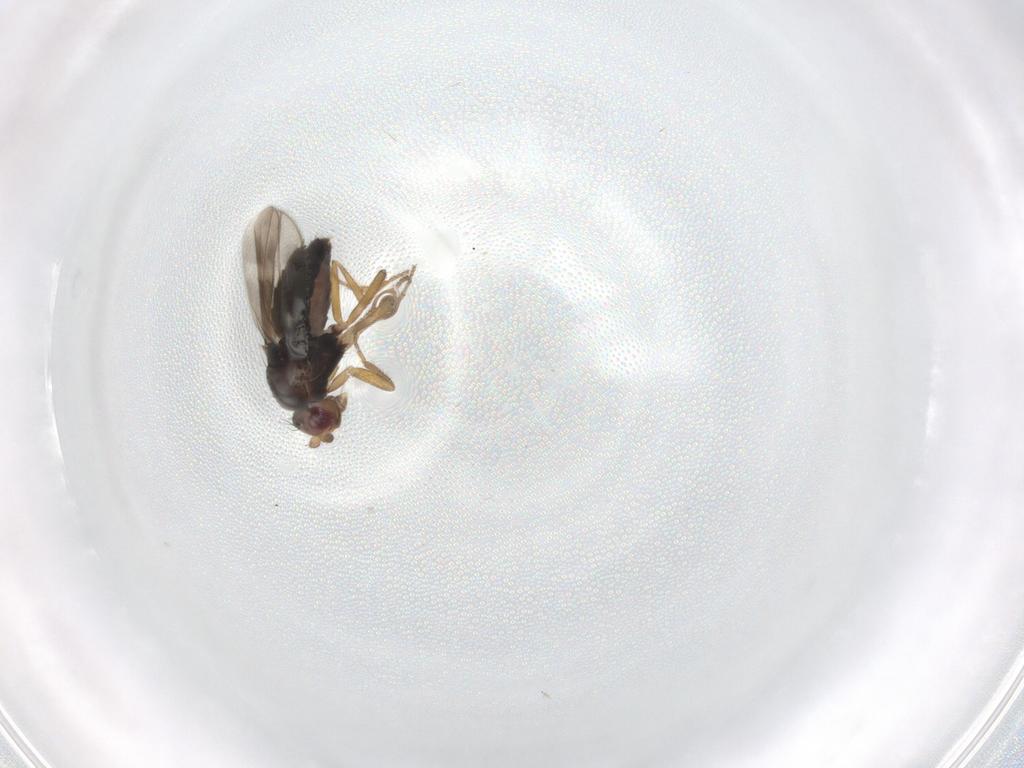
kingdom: Animalia
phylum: Arthropoda
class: Insecta
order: Diptera
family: Sphaeroceridae
